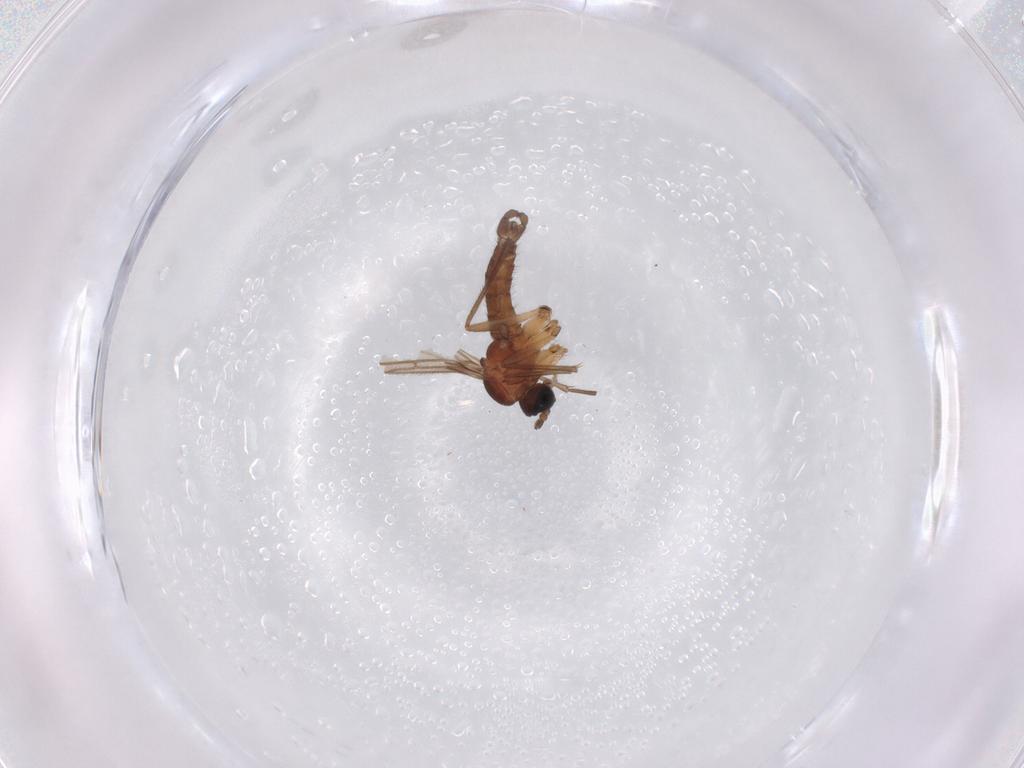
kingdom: Animalia
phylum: Arthropoda
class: Insecta
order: Diptera
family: Sciaridae
